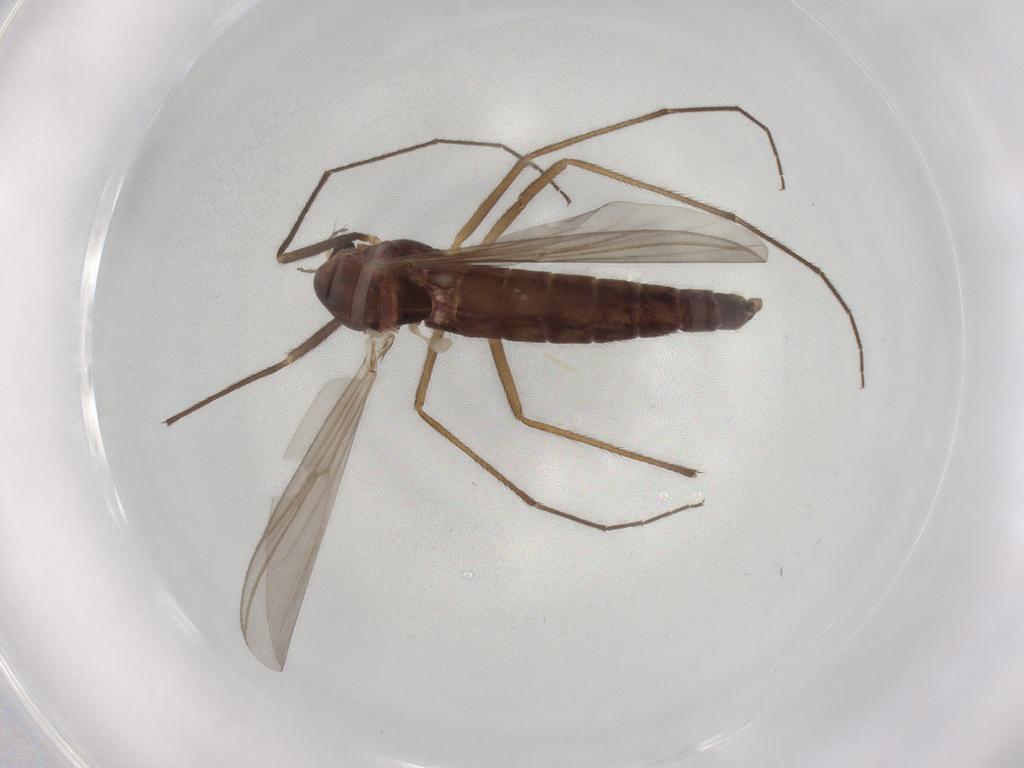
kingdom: Animalia
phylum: Arthropoda
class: Insecta
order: Diptera
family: Chironomidae
